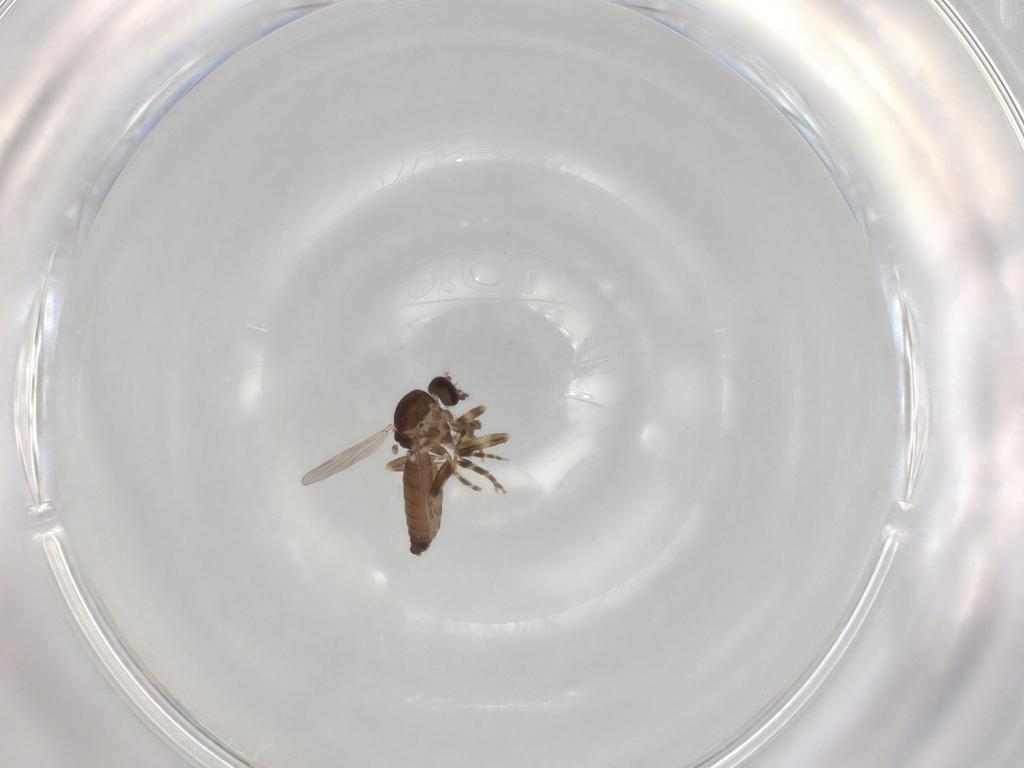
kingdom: Animalia
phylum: Arthropoda
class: Insecta
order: Diptera
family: Ceratopogonidae
